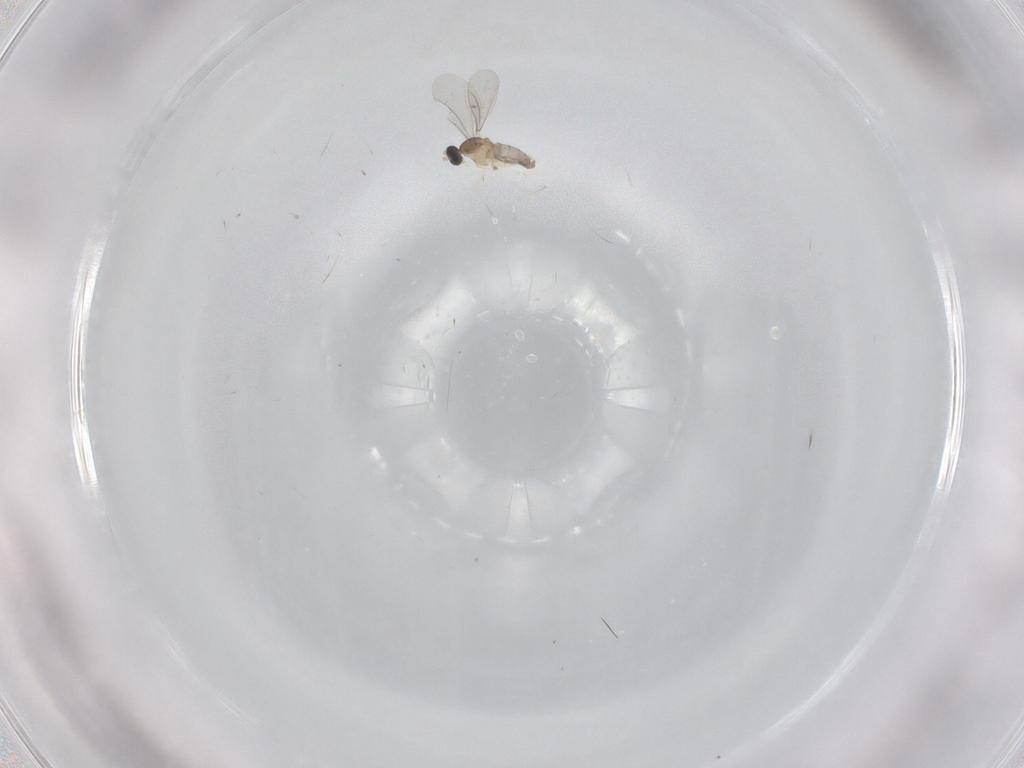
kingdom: Animalia
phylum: Arthropoda
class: Insecta
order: Diptera
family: Cecidomyiidae
